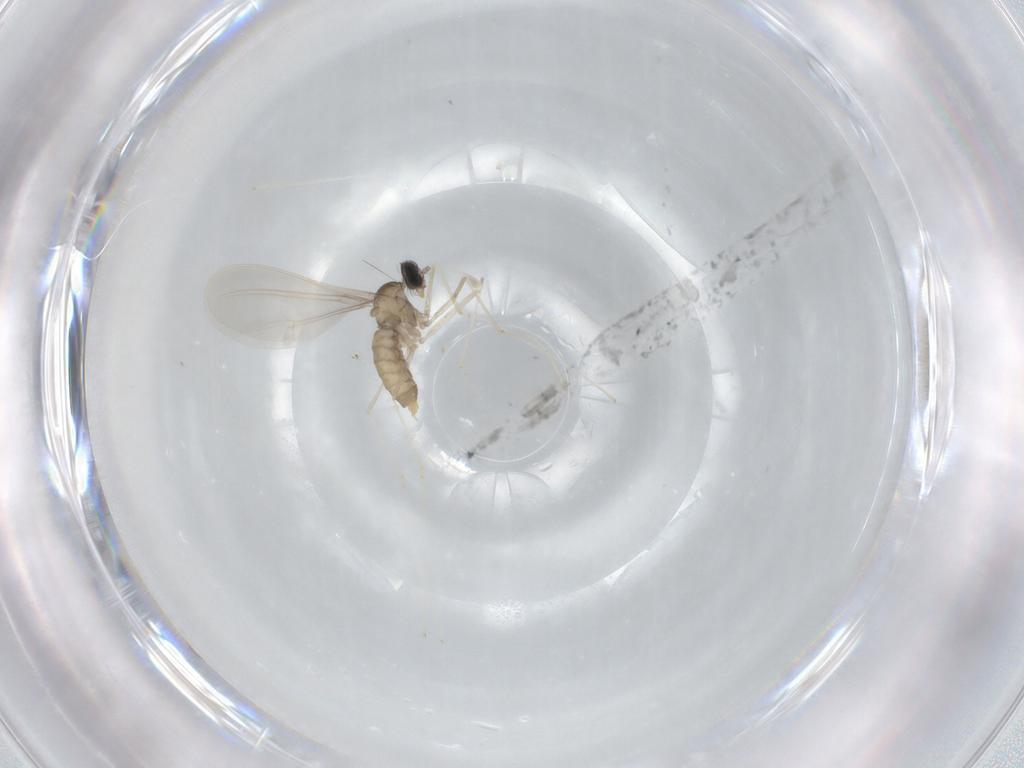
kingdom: Animalia
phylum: Arthropoda
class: Insecta
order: Diptera
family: Cecidomyiidae
